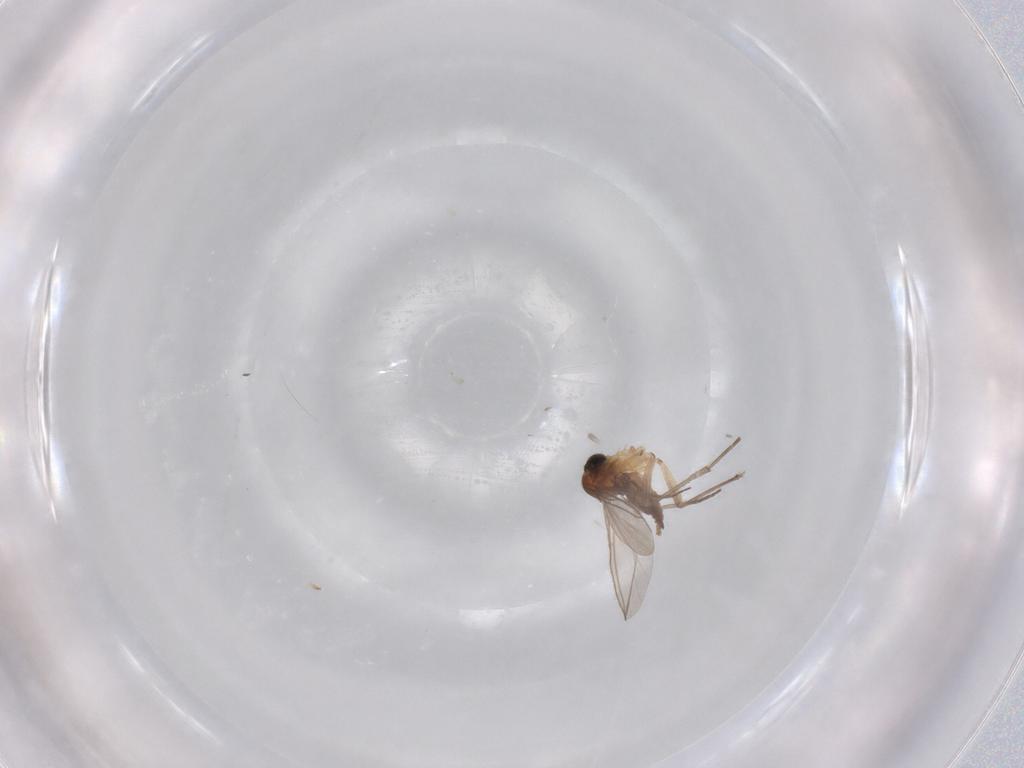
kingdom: Animalia
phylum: Arthropoda
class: Insecta
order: Diptera
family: Sciaridae
